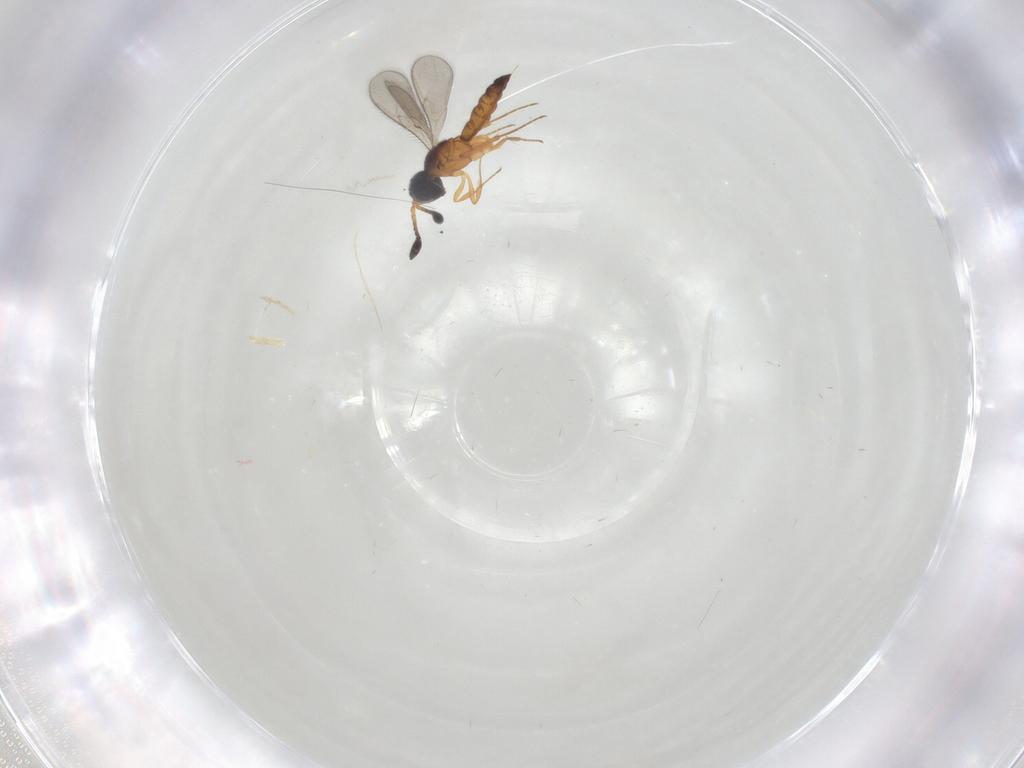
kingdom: Animalia
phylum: Arthropoda
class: Insecta
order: Hymenoptera
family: Scelionidae
